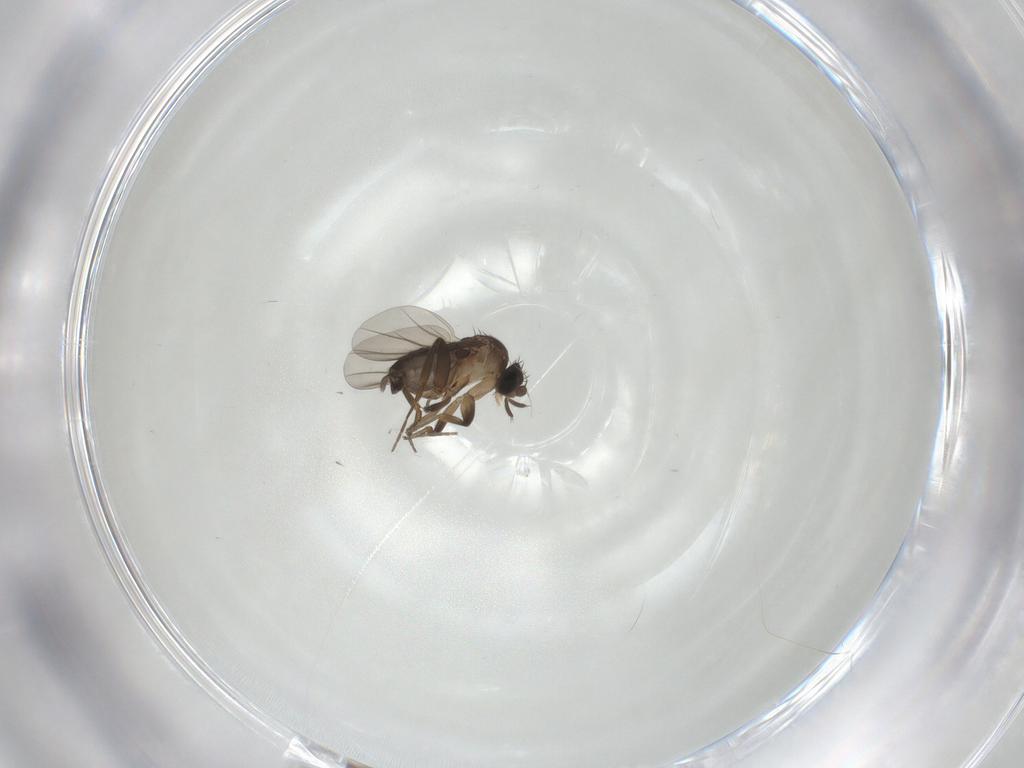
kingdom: Animalia
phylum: Arthropoda
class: Insecta
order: Diptera
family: Phoridae
